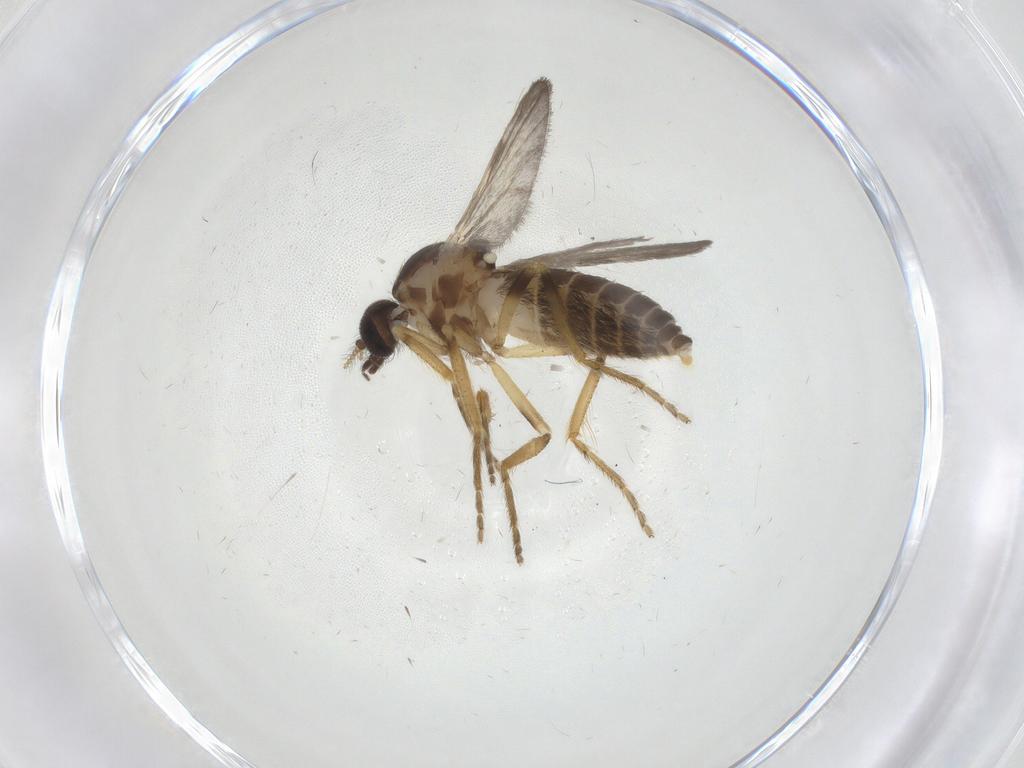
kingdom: Animalia
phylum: Arthropoda
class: Insecta
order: Diptera
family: Ceratopogonidae
